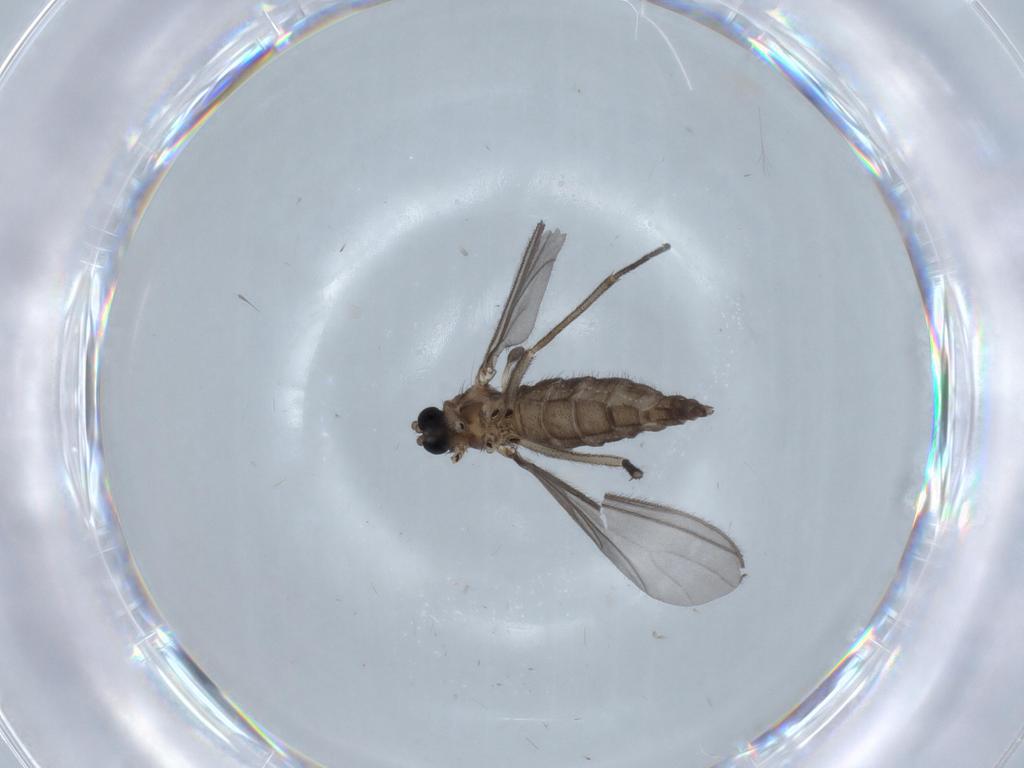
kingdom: Animalia
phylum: Arthropoda
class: Insecta
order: Diptera
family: Sciaridae
